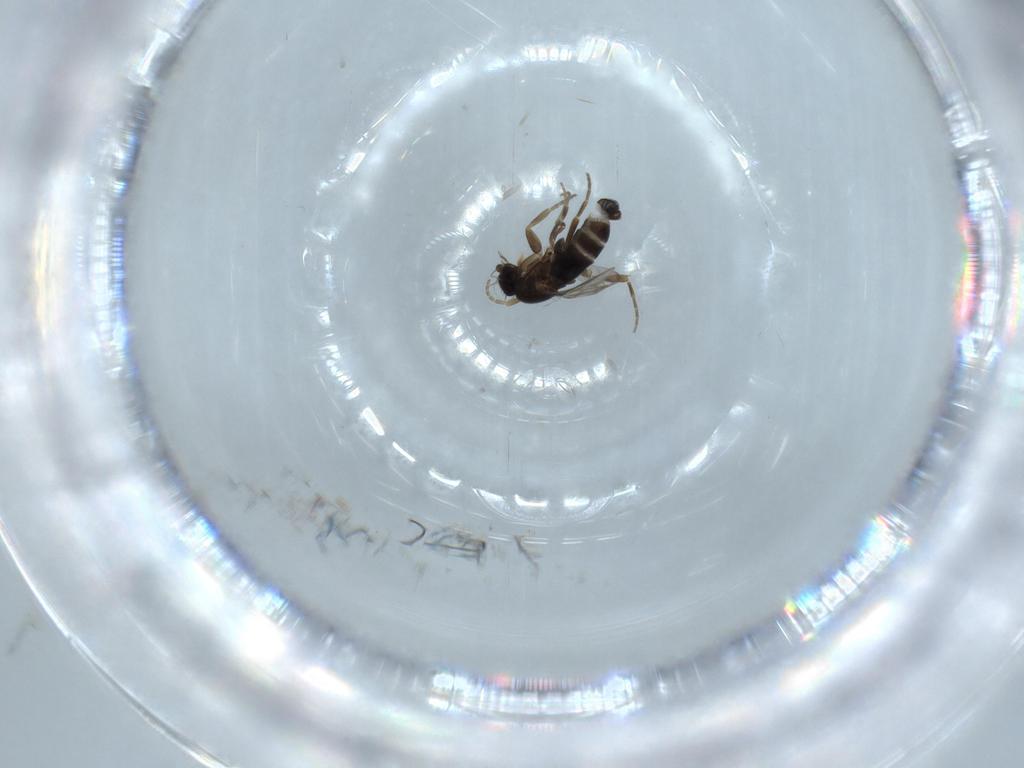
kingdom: Animalia
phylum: Arthropoda
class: Insecta
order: Diptera
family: Phoridae
